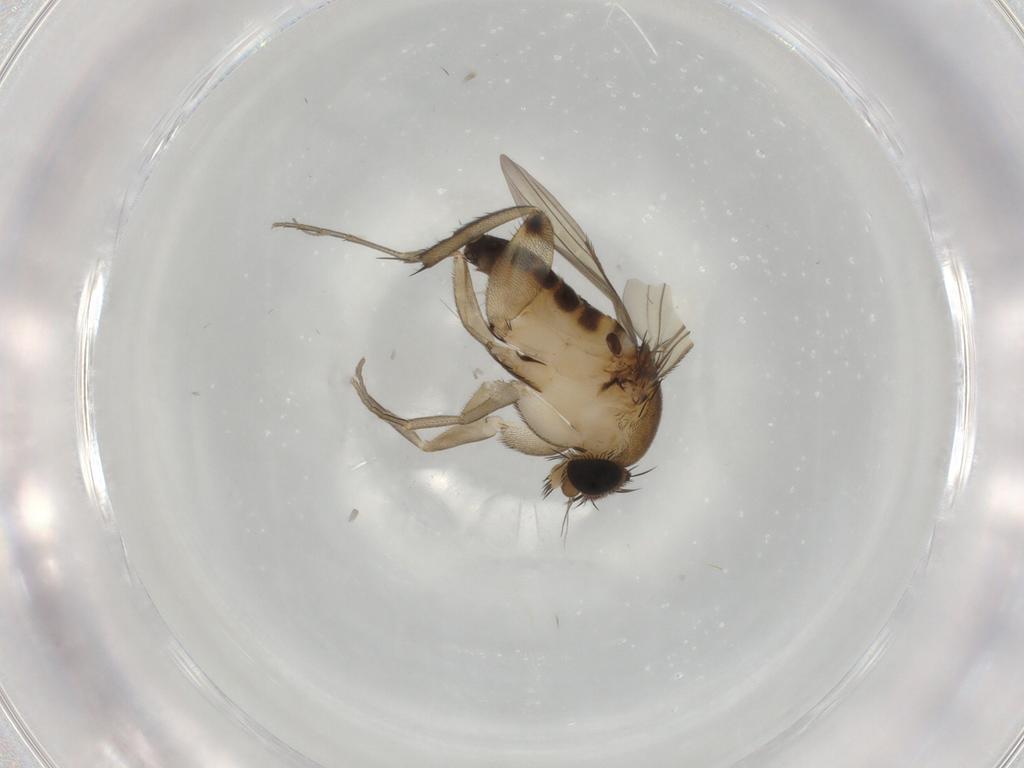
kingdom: Animalia
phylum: Arthropoda
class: Insecta
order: Diptera
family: Phoridae
